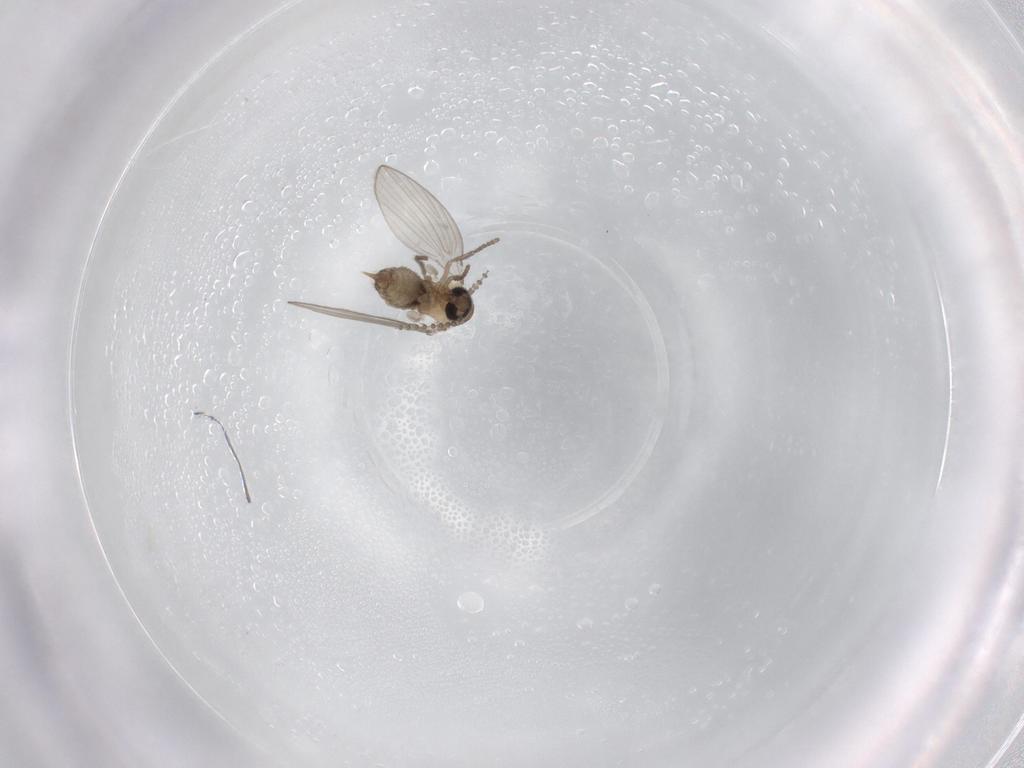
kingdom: Animalia
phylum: Arthropoda
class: Insecta
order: Diptera
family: Psychodidae
